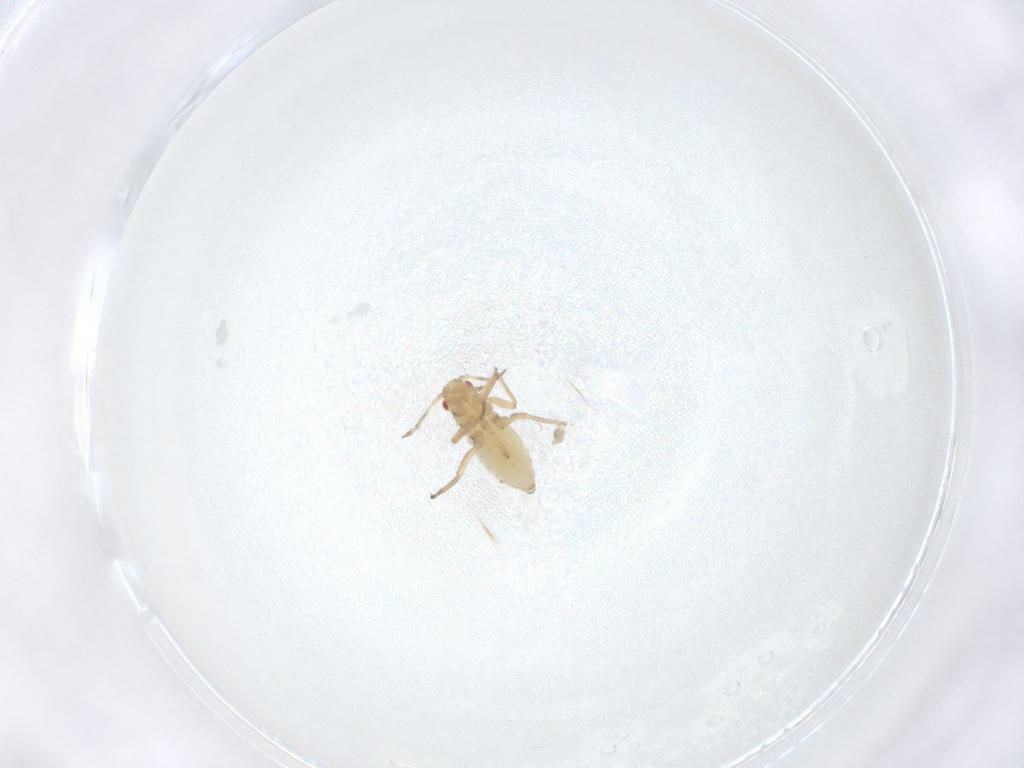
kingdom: Animalia
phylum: Arthropoda
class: Insecta
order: Hemiptera
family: Aphididae
